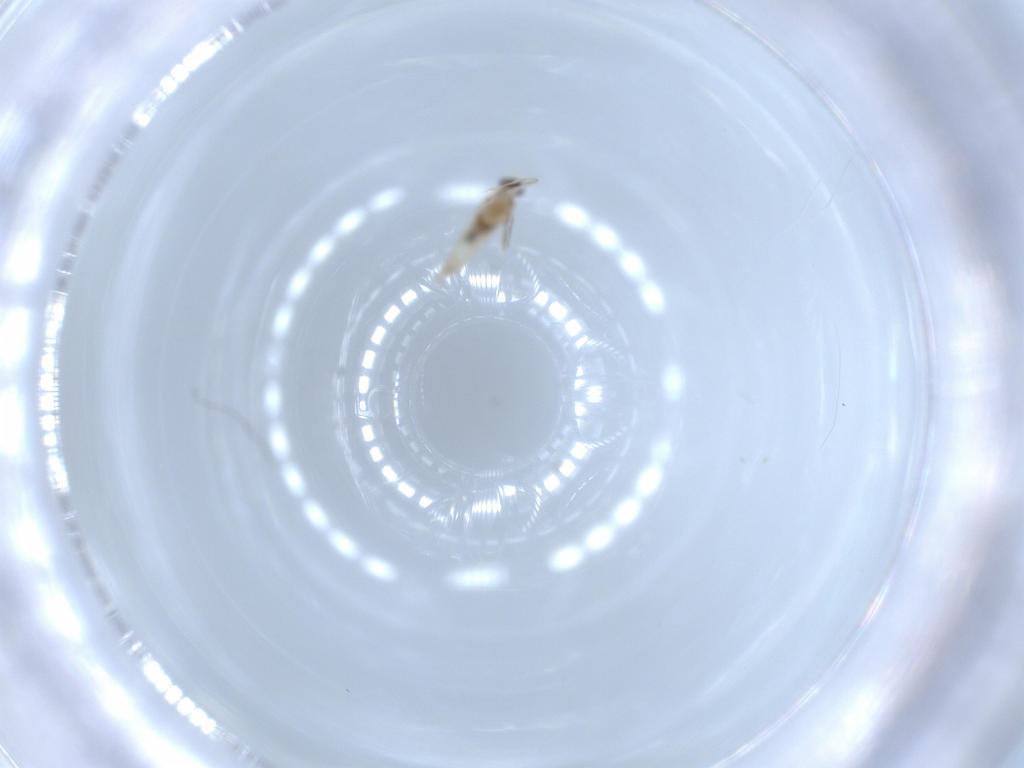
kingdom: Animalia
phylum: Arthropoda
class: Insecta
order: Diptera
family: Cecidomyiidae
